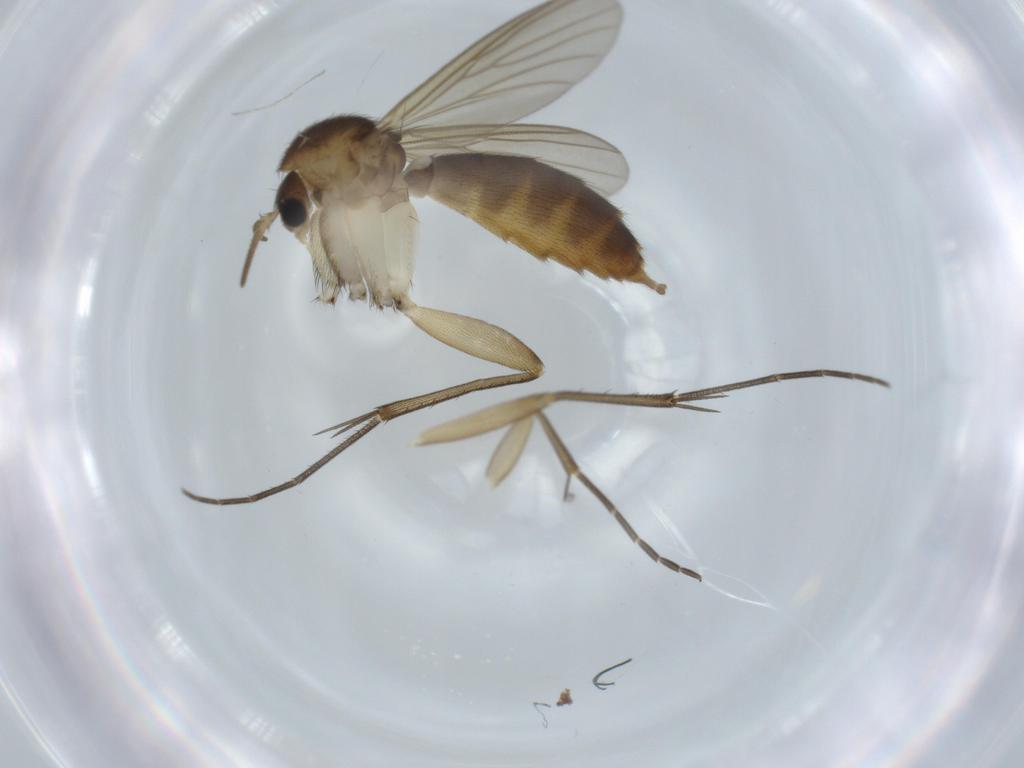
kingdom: Animalia
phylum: Arthropoda
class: Insecta
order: Diptera
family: Mycetophilidae
